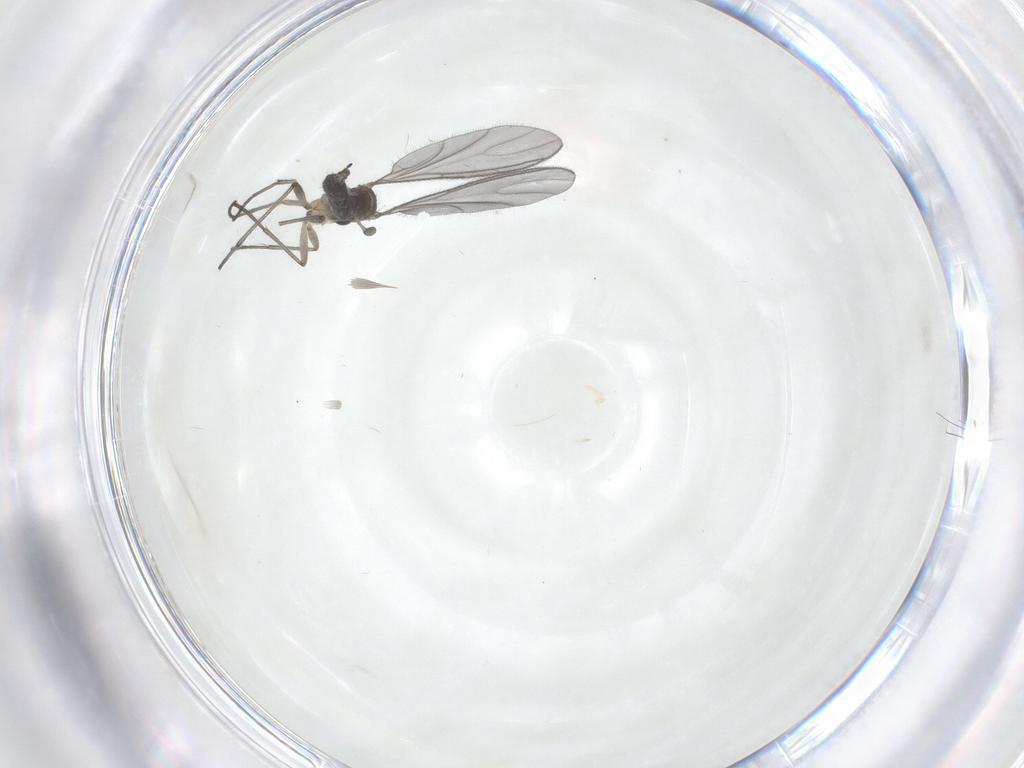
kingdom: Animalia
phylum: Arthropoda
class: Insecta
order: Diptera
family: Sciaridae
